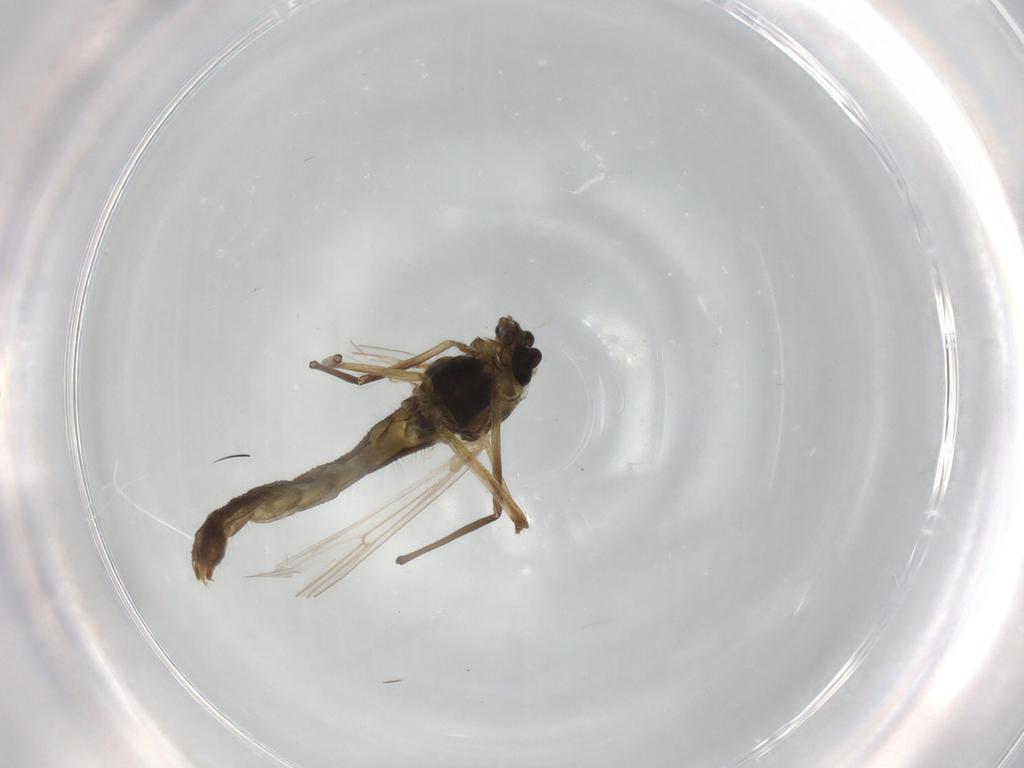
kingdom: Animalia
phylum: Arthropoda
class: Insecta
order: Diptera
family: Chironomidae
